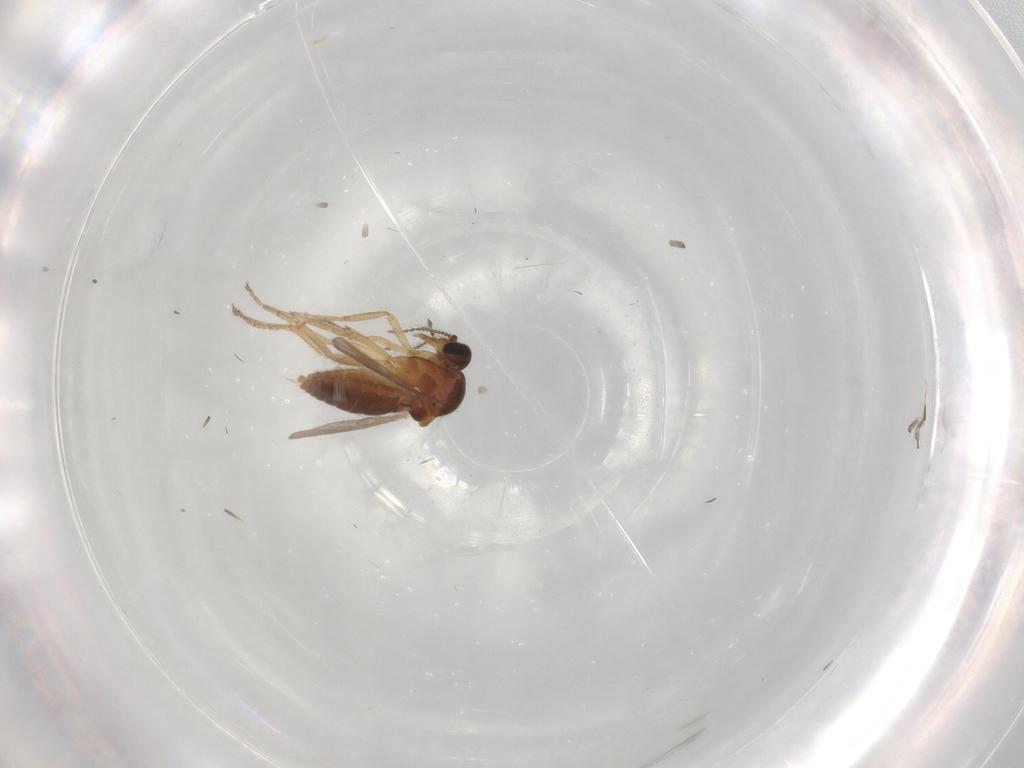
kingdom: Animalia
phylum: Arthropoda
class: Insecta
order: Diptera
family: Ceratopogonidae
